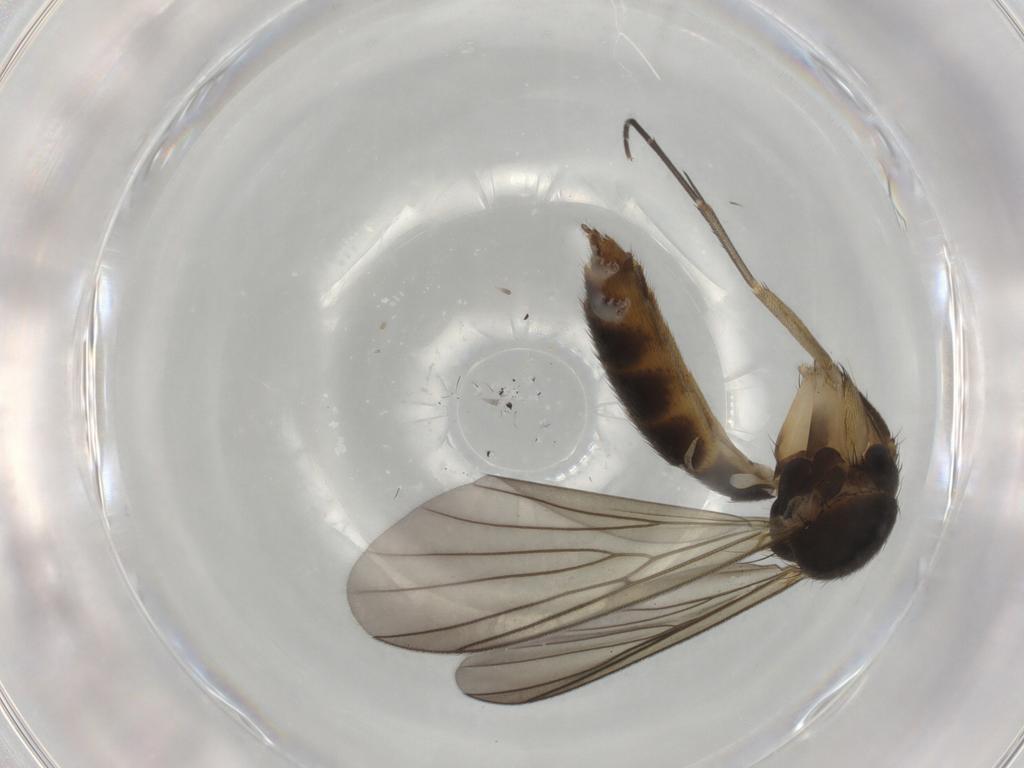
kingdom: Animalia
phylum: Arthropoda
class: Insecta
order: Diptera
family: Mycetophilidae
